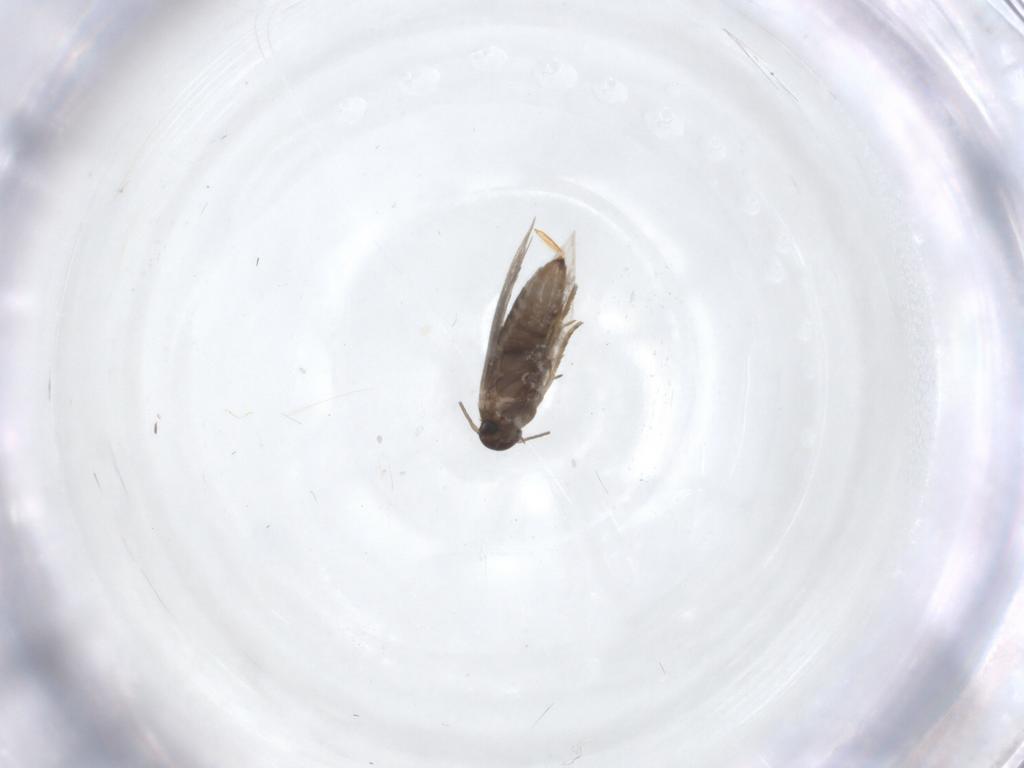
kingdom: Animalia
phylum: Arthropoda
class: Insecta
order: Lepidoptera
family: Heliozelidae
